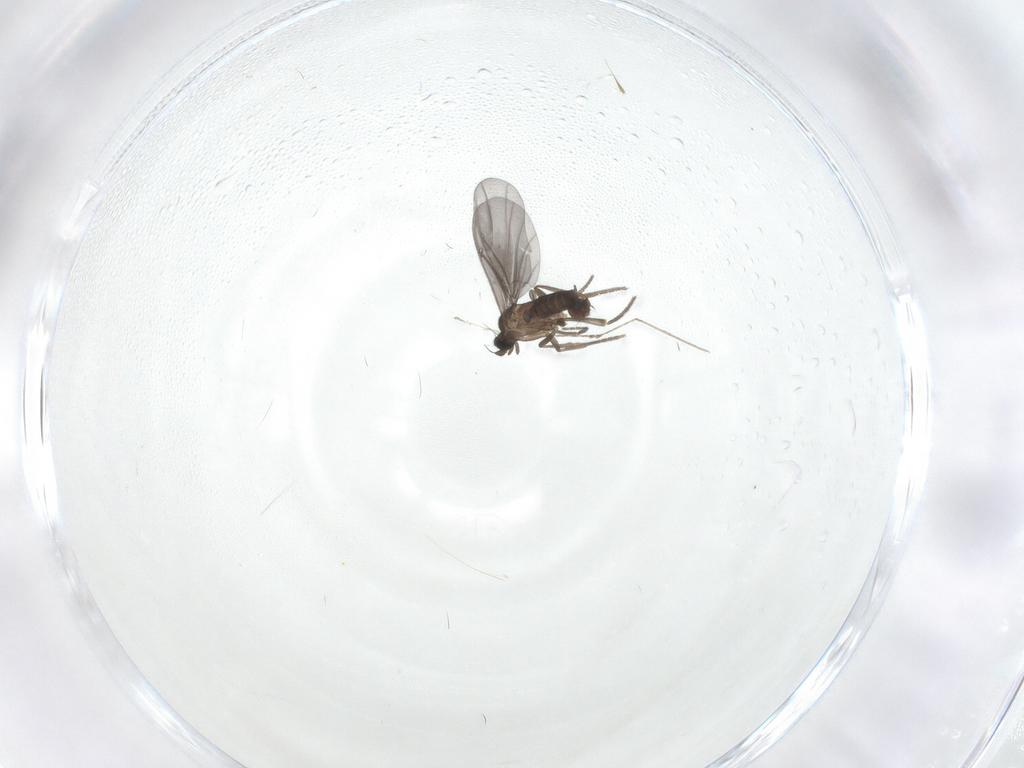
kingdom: Animalia
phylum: Arthropoda
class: Insecta
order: Diptera
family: Phoridae
